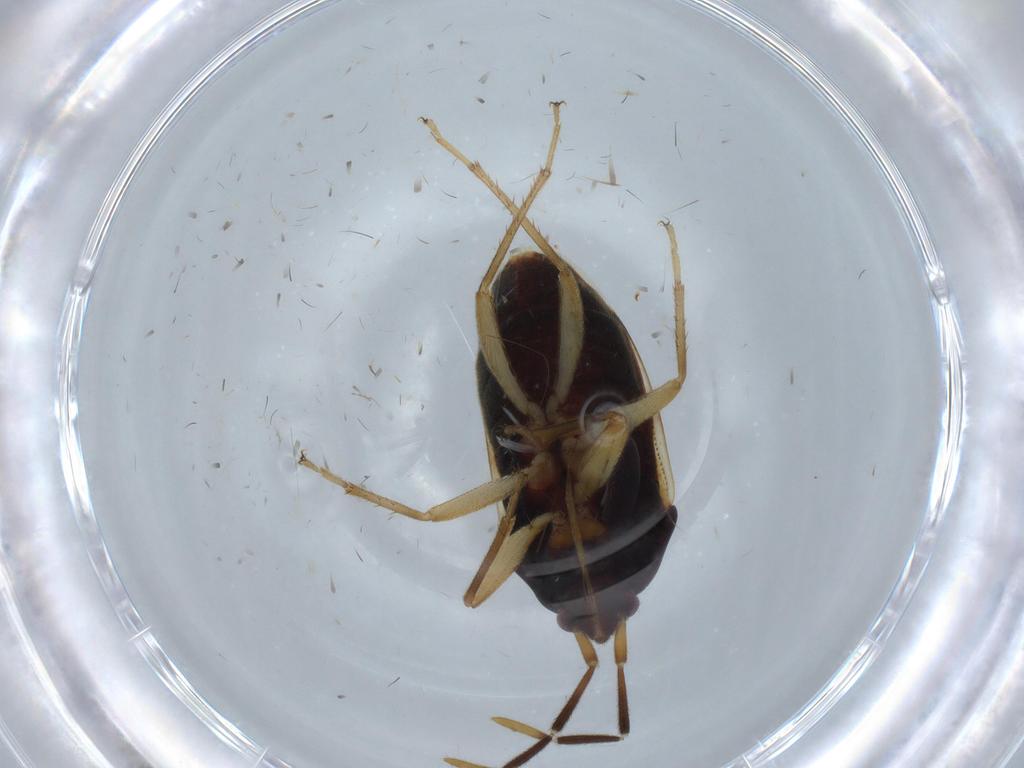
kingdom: Animalia
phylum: Arthropoda
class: Insecta
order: Hemiptera
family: Rhyparochromidae
